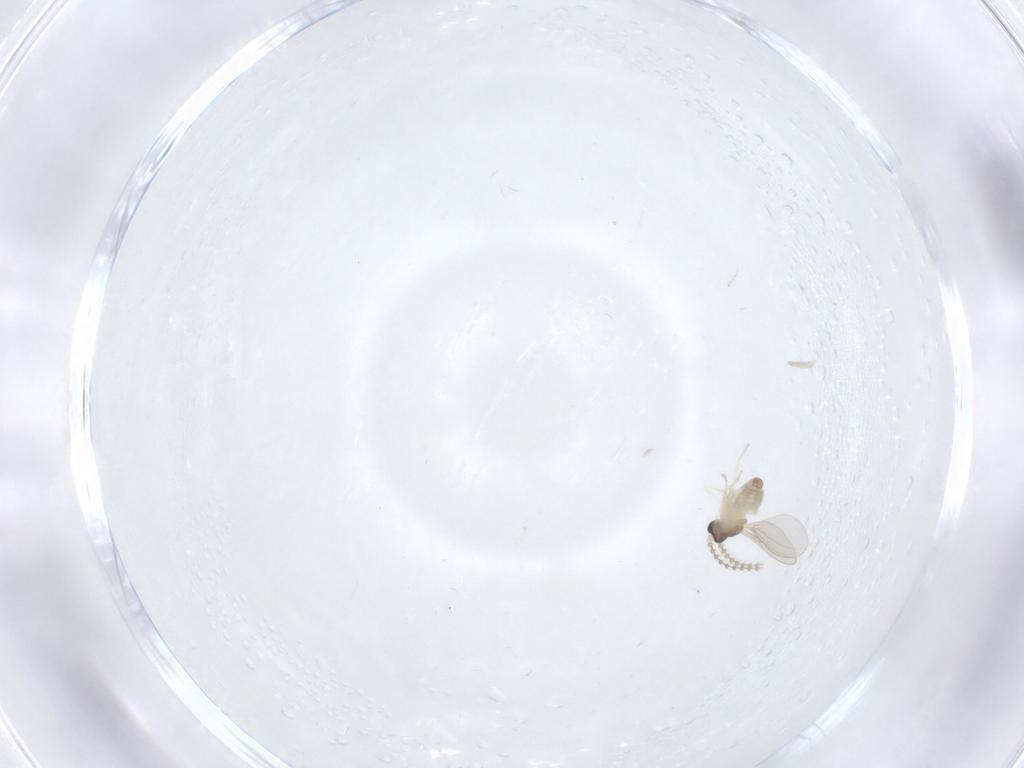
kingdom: Animalia
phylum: Arthropoda
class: Insecta
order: Diptera
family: Cecidomyiidae
